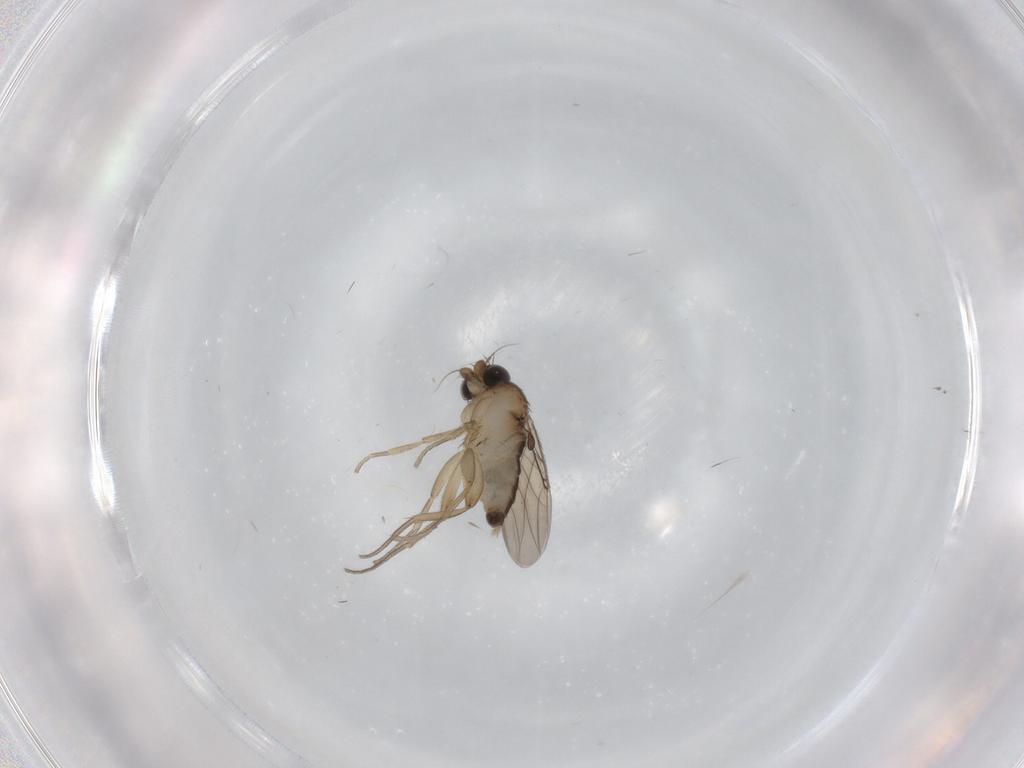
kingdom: Animalia
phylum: Arthropoda
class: Insecta
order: Diptera
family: Phoridae
